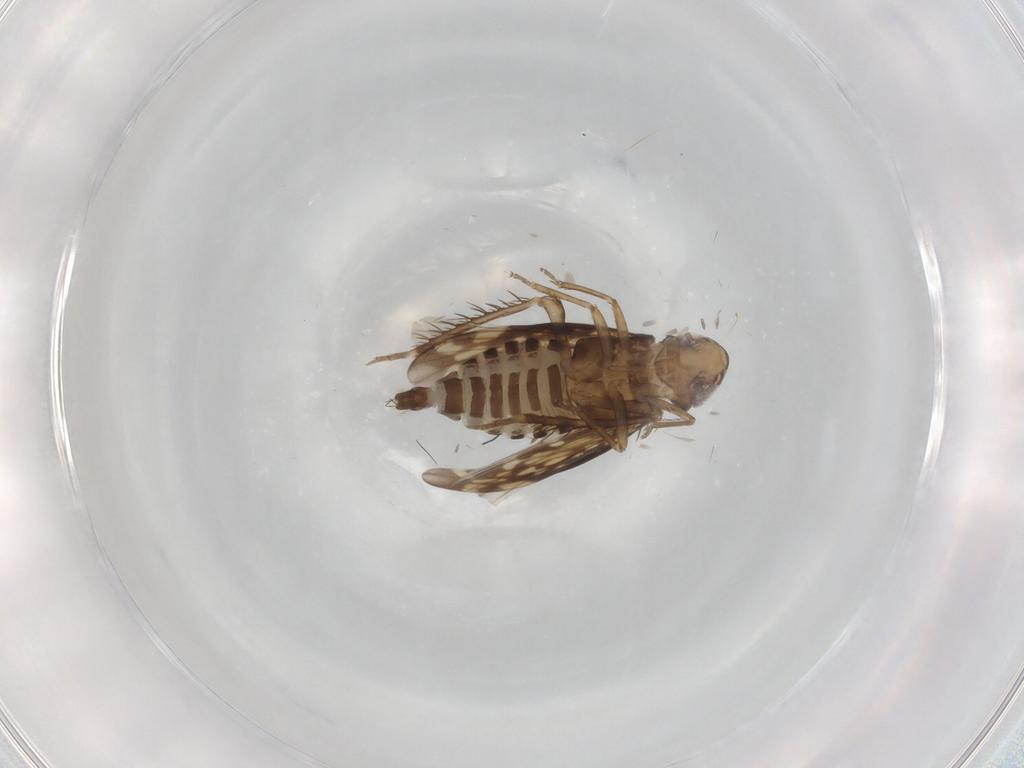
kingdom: Animalia
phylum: Arthropoda
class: Insecta
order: Hemiptera
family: Cicadellidae
